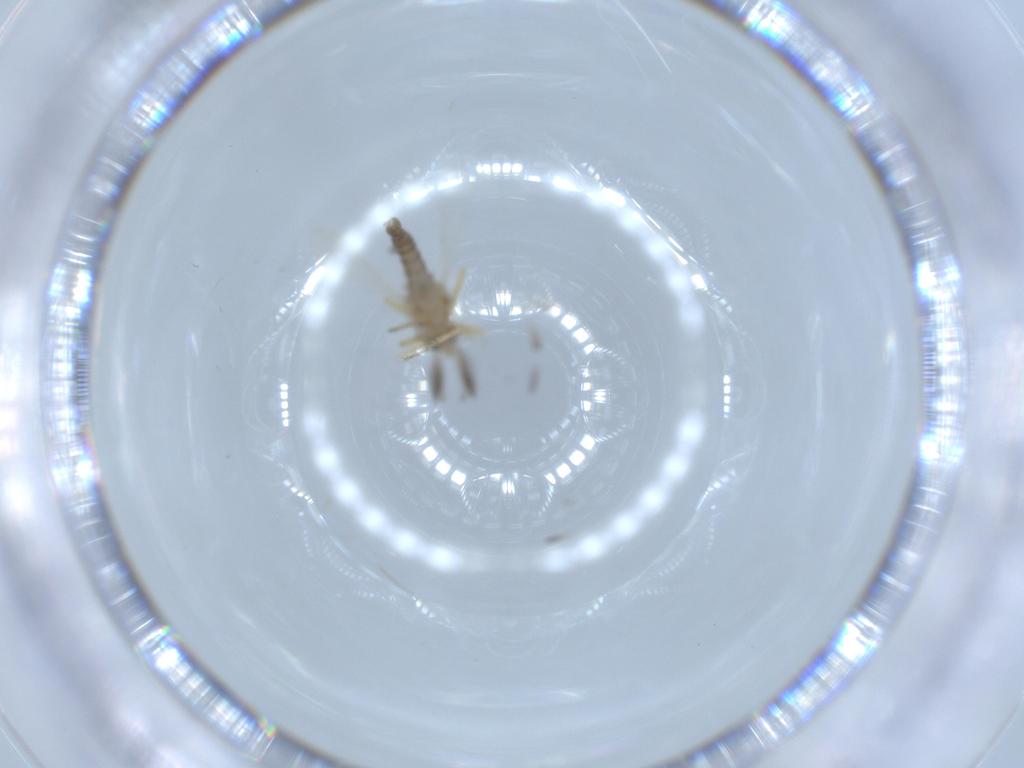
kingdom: Animalia
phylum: Arthropoda
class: Insecta
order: Diptera
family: Ceratopogonidae
